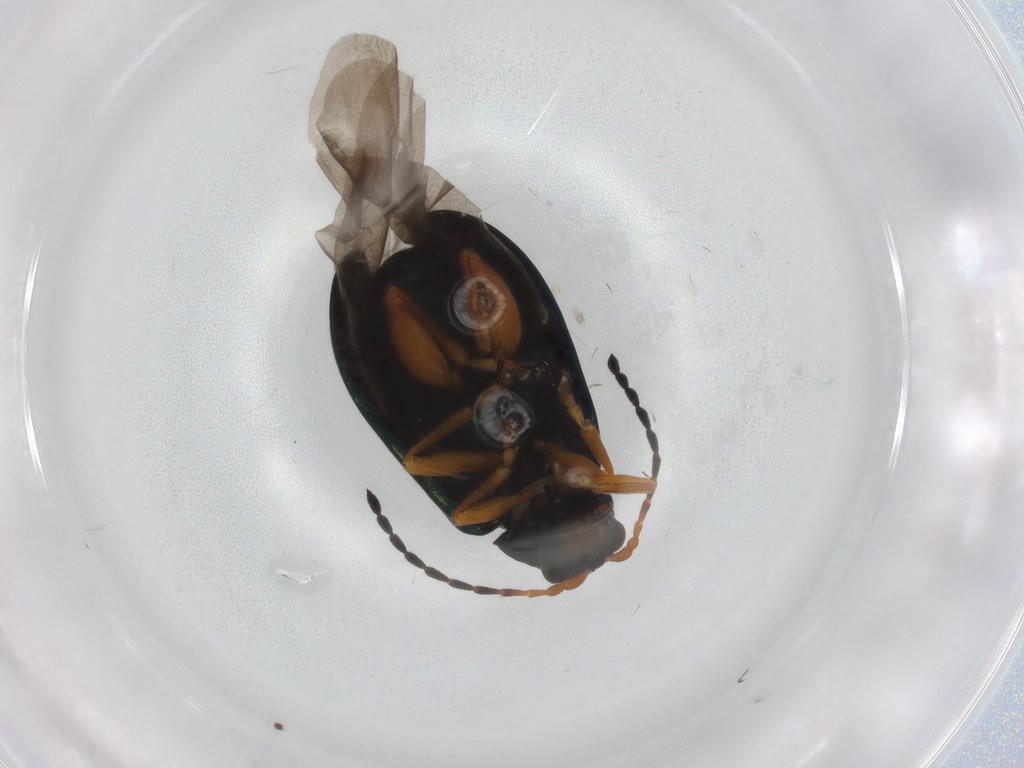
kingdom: Animalia
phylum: Arthropoda
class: Insecta
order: Coleoptera
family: Chrysomelidae
